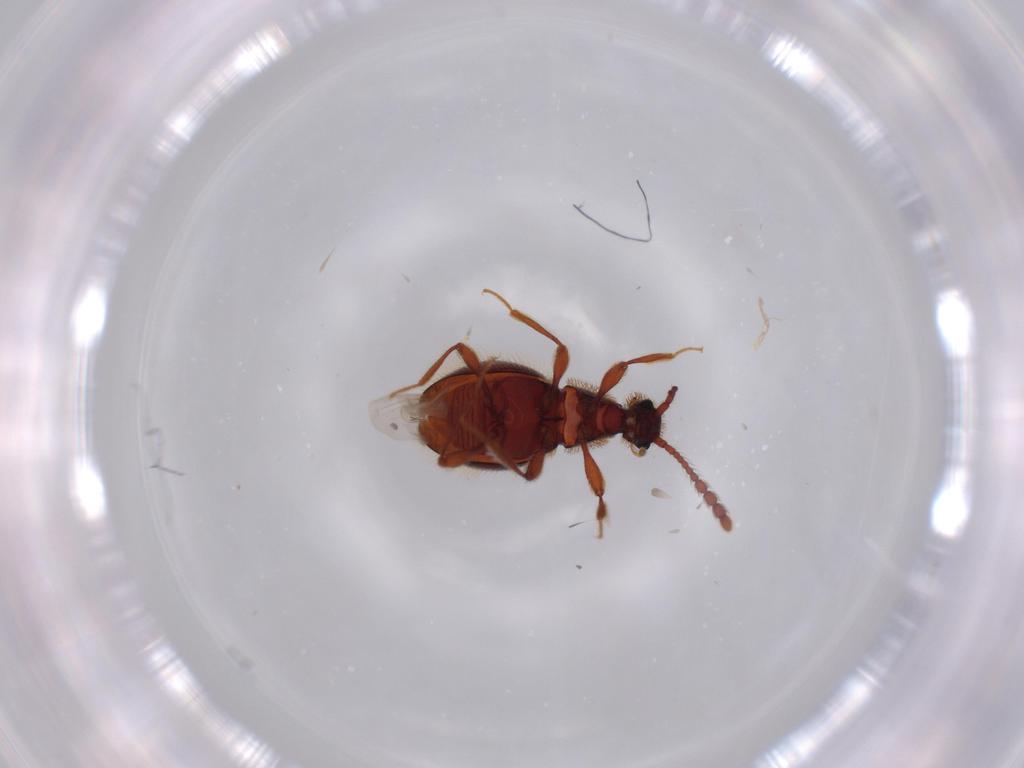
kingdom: Animalia
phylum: Arthropoda
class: Insecta
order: Coleoptera
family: Staphylinidae
